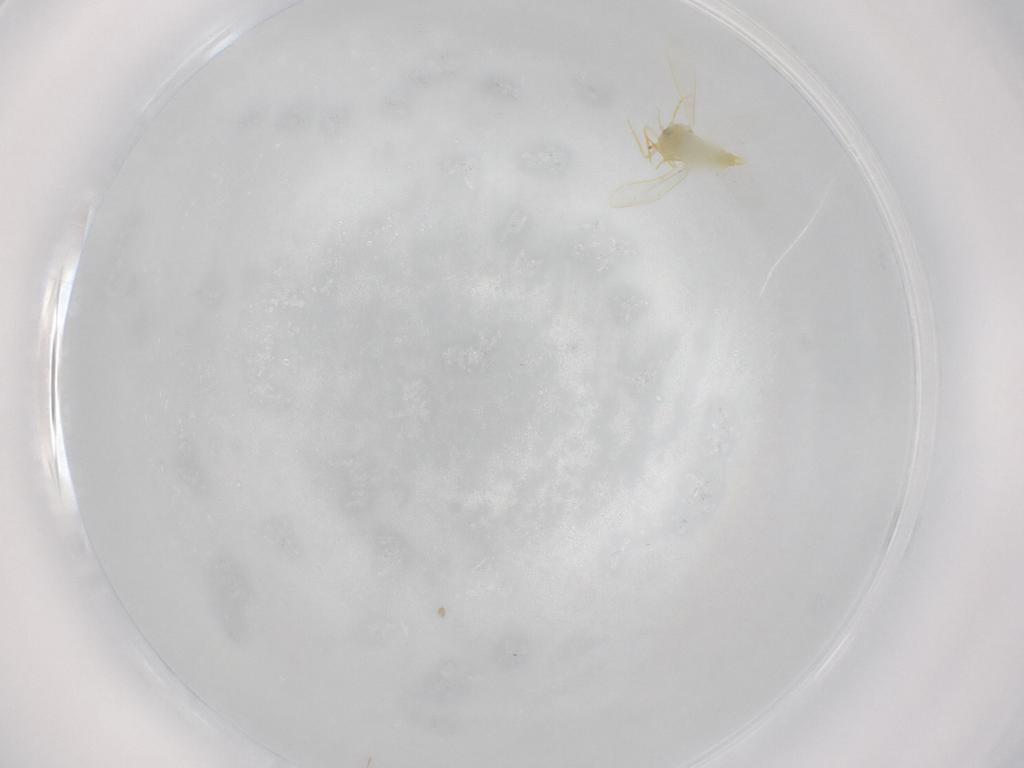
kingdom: Animalia
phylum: Arthropoda
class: Insecta
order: Hemiptera
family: Aleyrodidae
